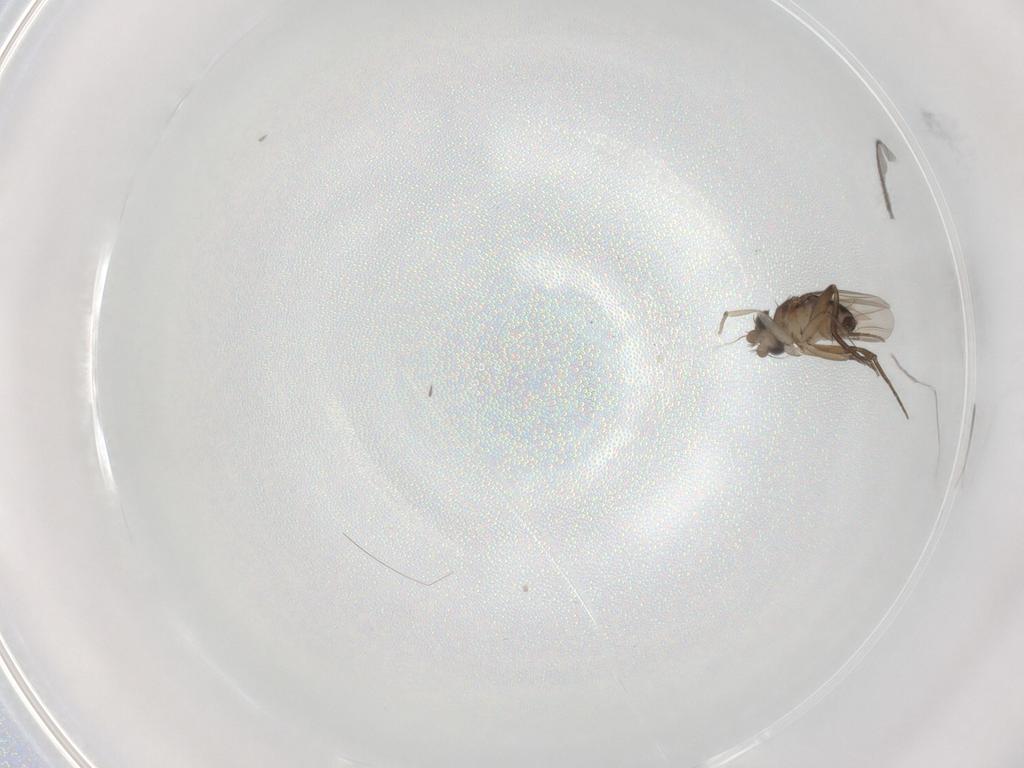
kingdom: Animalia
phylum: Arthropoda
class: Insecta
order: Diptera
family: Phoridae
